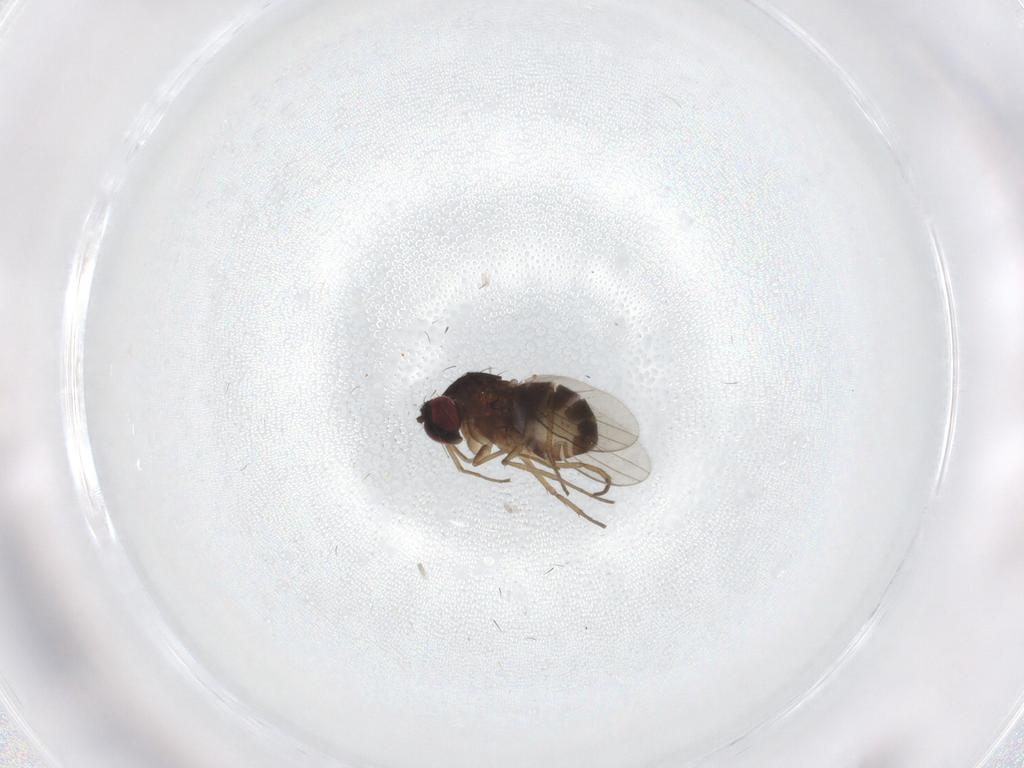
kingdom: Animalia
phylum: Arthropoda
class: Insecta
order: Diptera
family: Dolichopodidae
